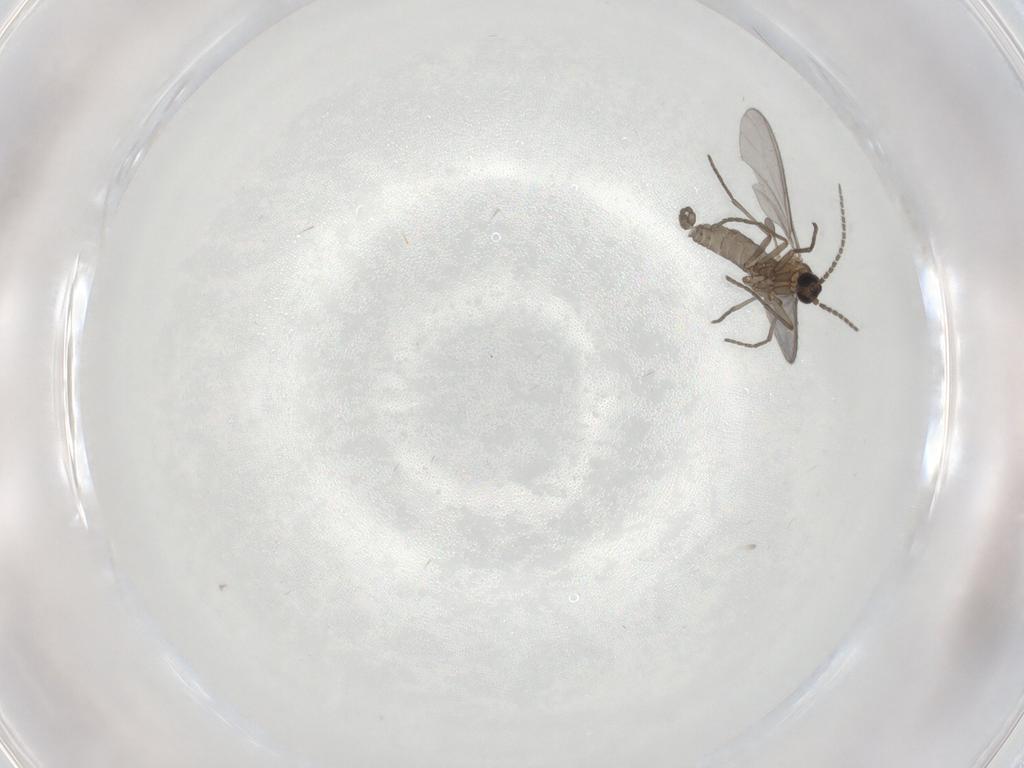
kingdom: Animalia
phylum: Arthropoda
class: Insecta
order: Diptera
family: Sciaridae
